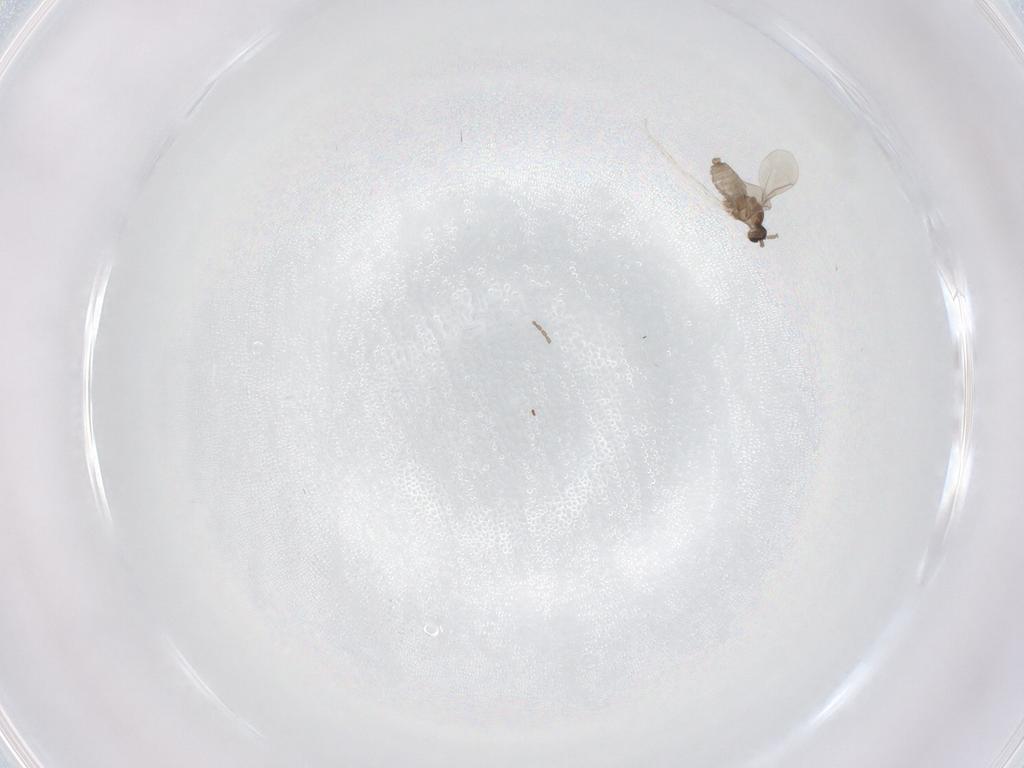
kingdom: Animalia
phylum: Arthropoda
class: Insecta
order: Diptera
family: Cecidomyiidae
